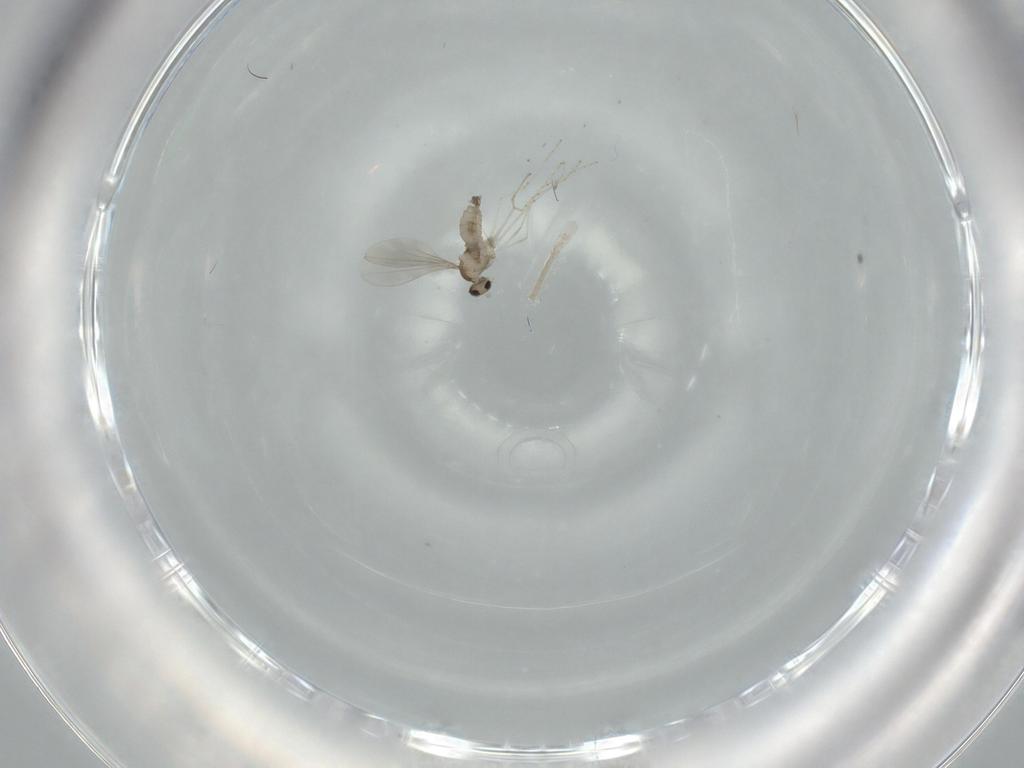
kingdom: Animalia
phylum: Arthropoda
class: Insecta
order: Diptera
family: Cecidomyiidae
